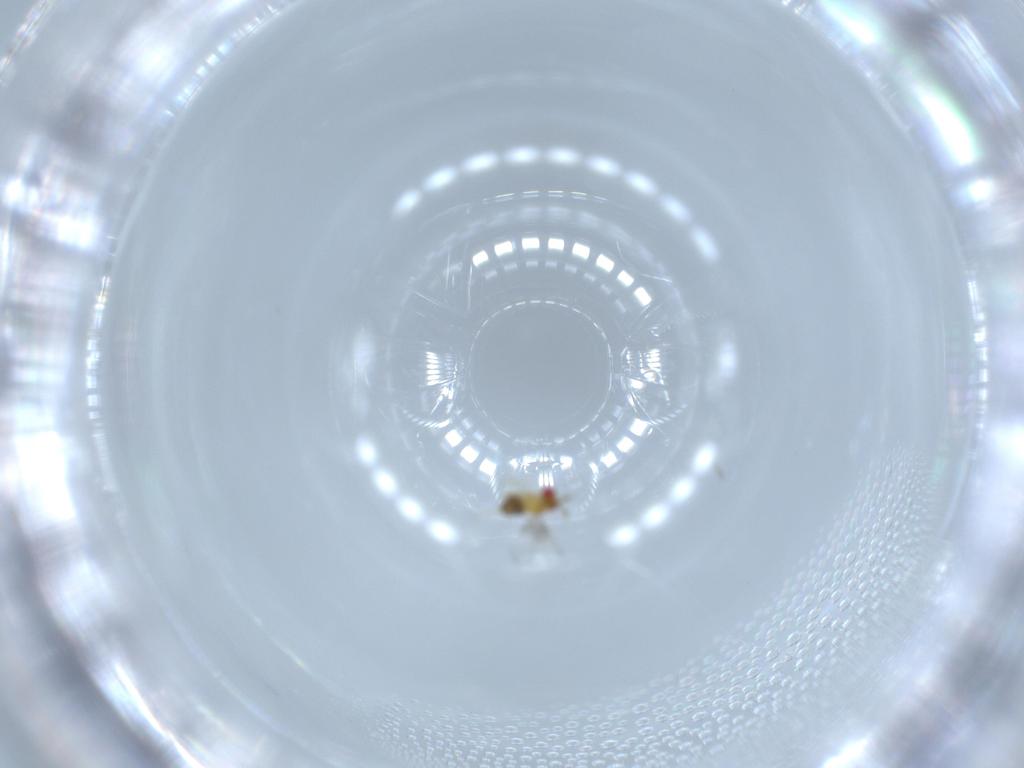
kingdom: Animalia
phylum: Arthropoda
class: Insecta
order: Hymenoptera
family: Trichogrammatidae
